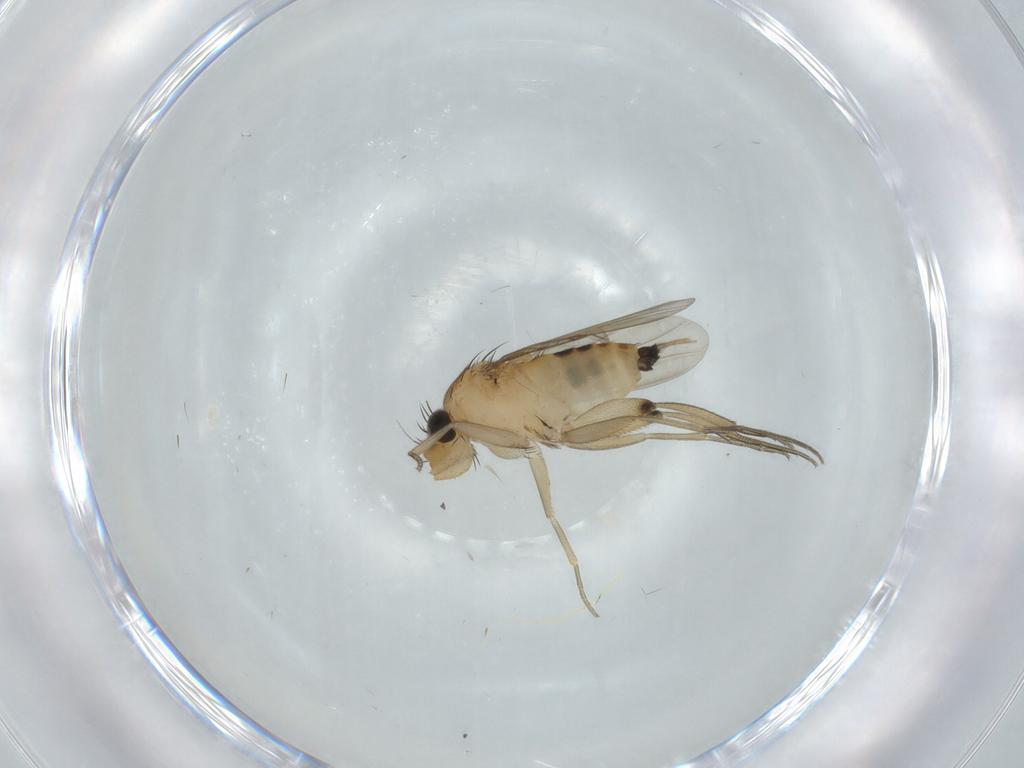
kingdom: Animalia
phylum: Arthropoda
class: Insecta
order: Diptera
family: Phoridae
